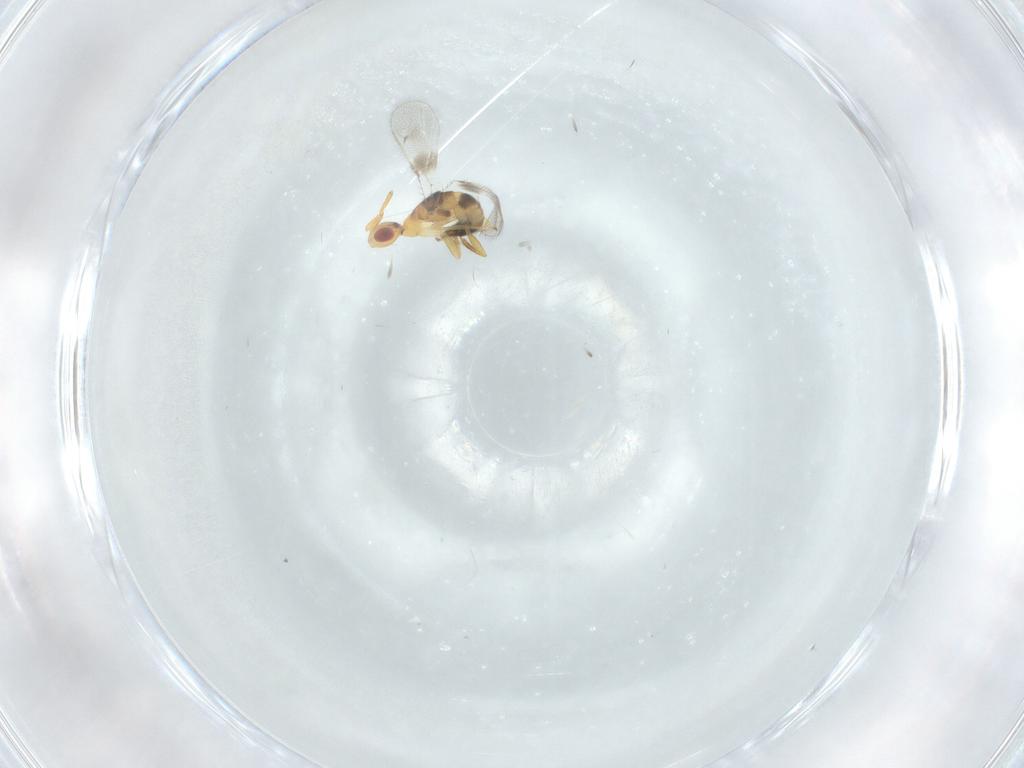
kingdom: Animalia
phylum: Arthropoda
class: Insecta
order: Hymenoptera
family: Torymidae
